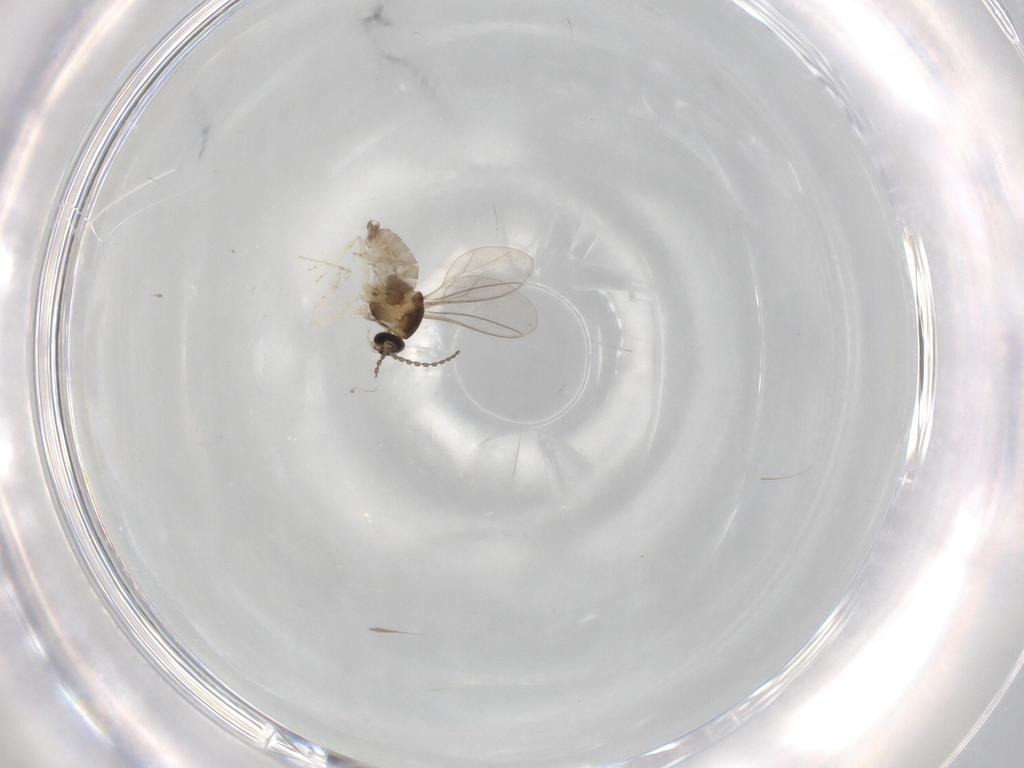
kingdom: Animalia
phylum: Arthropoda
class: Insecta
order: Diptera
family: Cecidomyiidae
